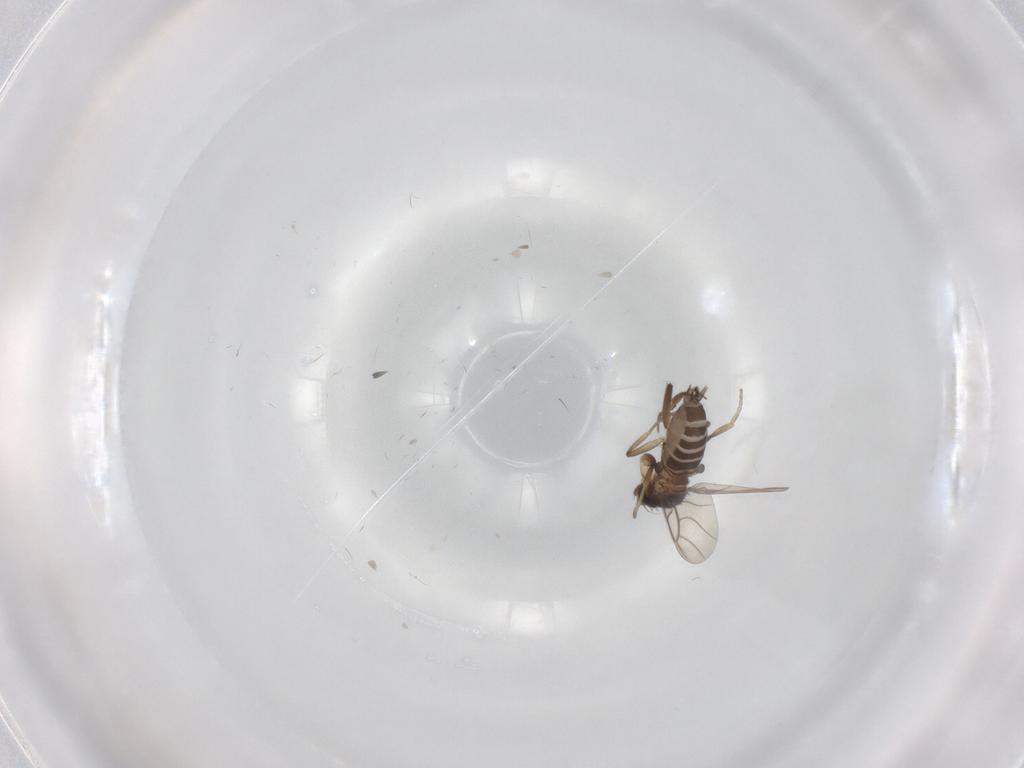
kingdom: Animalia
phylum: Arthropoda
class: Insecta
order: Diptera
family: Phoridae
